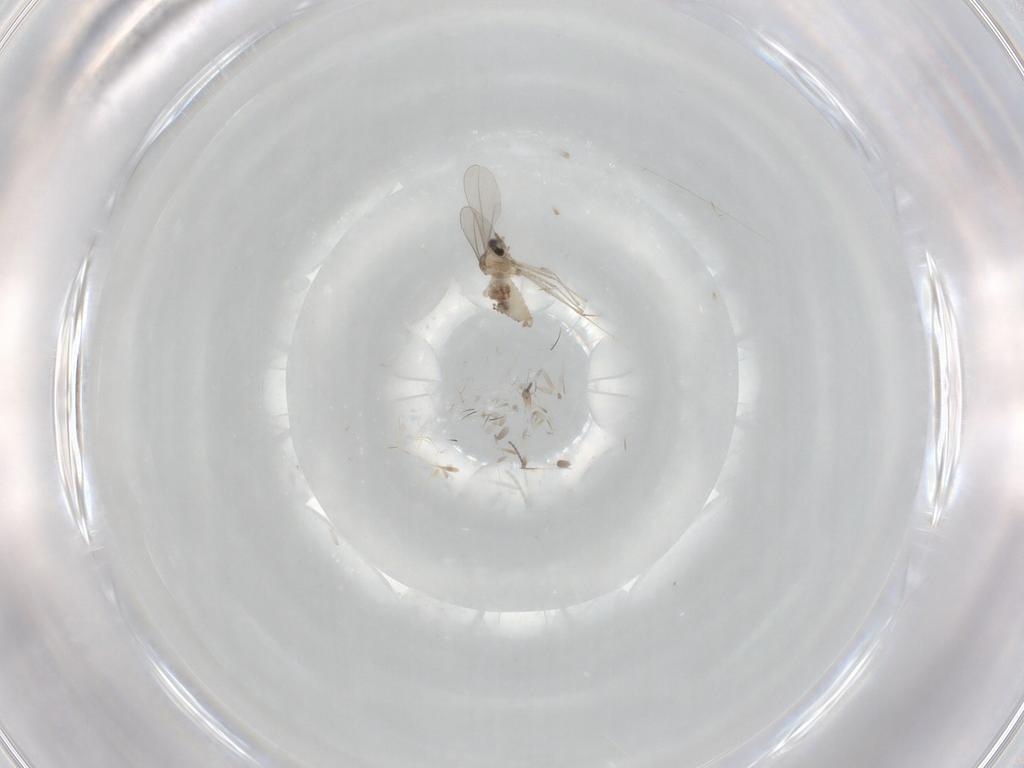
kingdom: Animalia
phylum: Arthropoda
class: Insecta
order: Diptera
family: Cecidomyiidae
